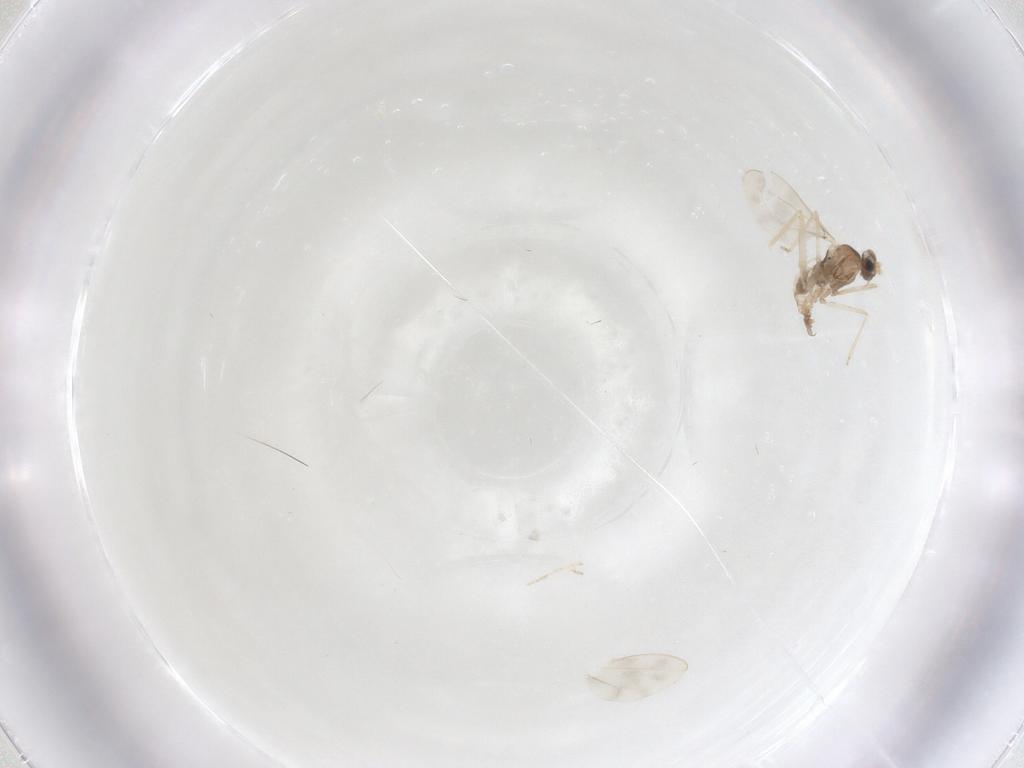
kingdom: Animalia
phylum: Arthropoda
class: Insecta
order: Diptera
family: Cecidomyiidae
